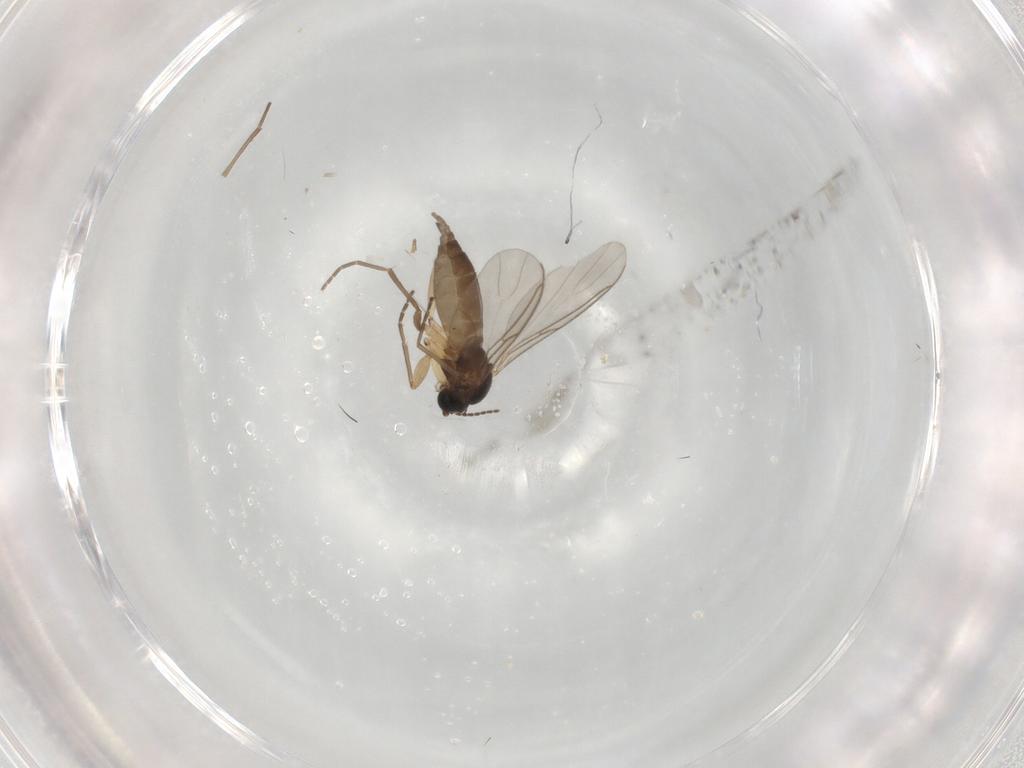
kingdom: Animalia
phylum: Arthropoda
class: Insecta
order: Diptera
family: Sciaridae
